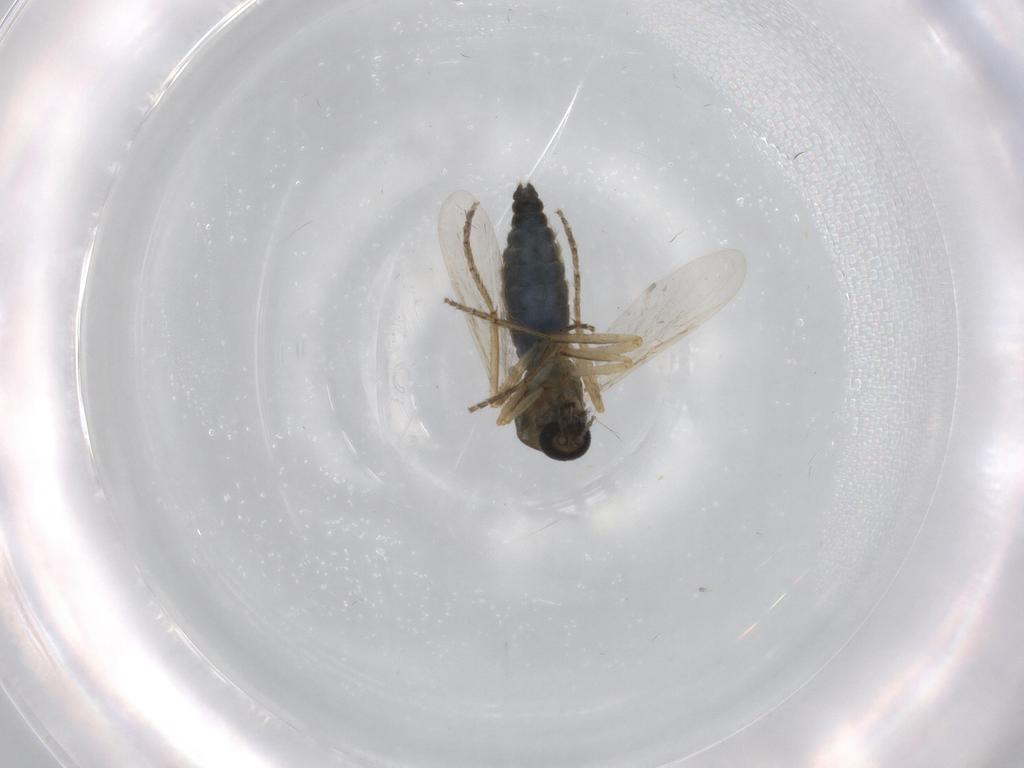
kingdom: Animalia
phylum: Arthropoda
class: Insecta
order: Diptera
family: Ceratopogonidae
